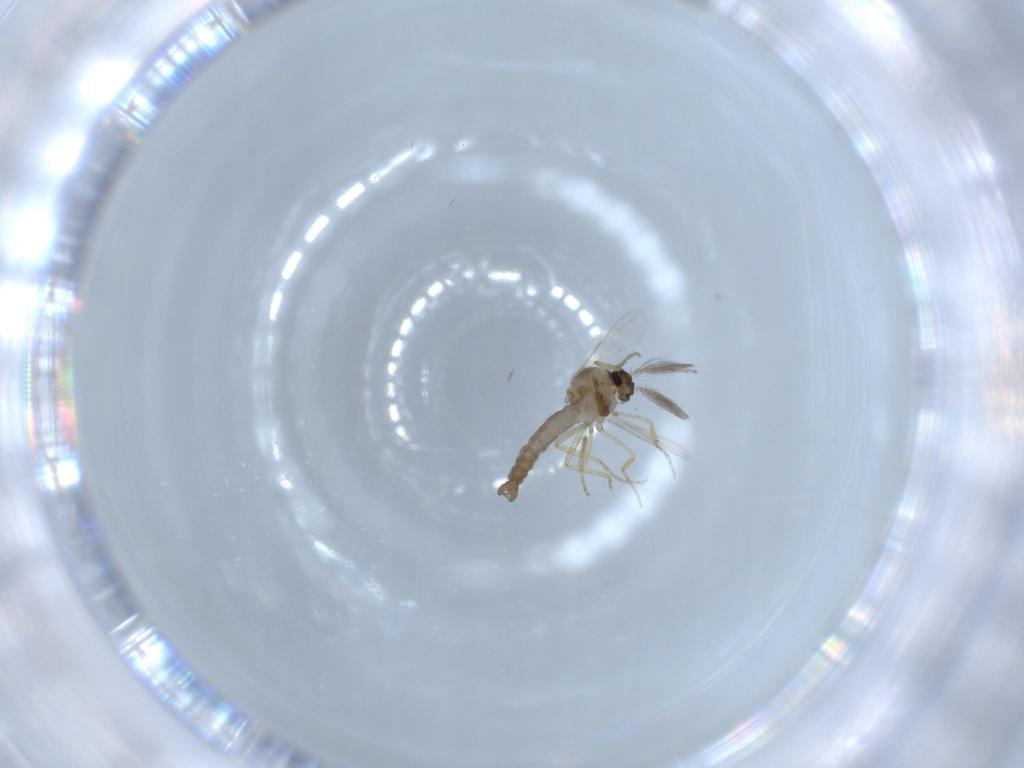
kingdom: Animalia
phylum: Arthropoda
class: Insecta
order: Diptera
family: Ceratopogonidae
